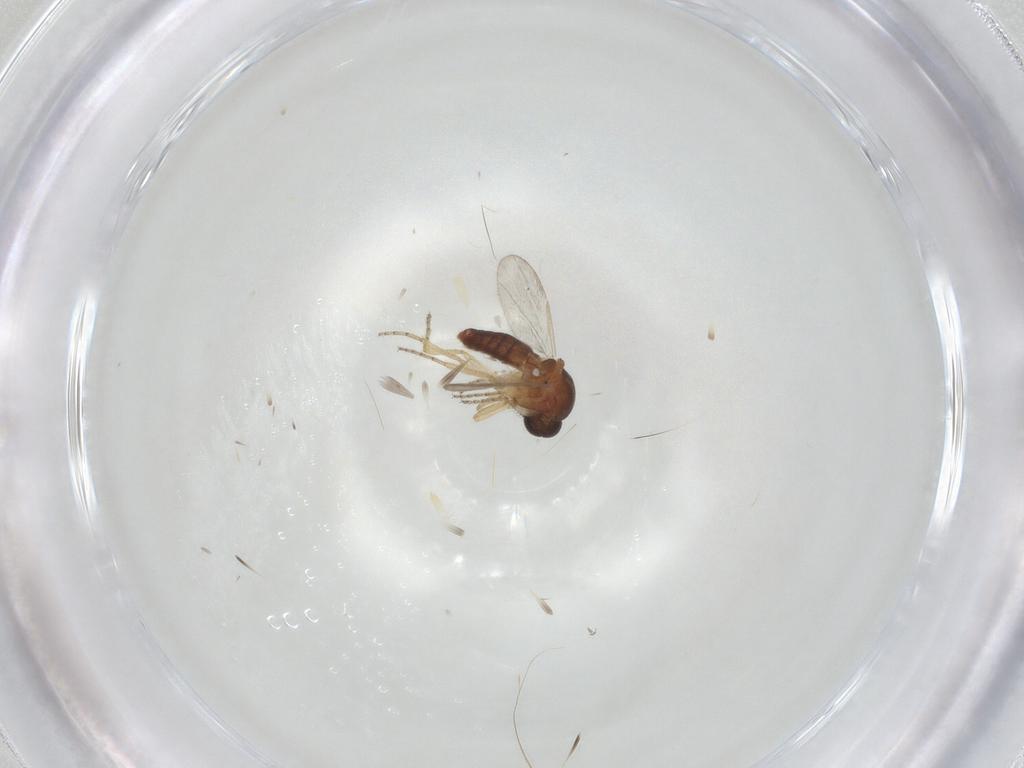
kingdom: Animalia
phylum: Arthropoda
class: Insecta
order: Diptera
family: Ceratopogonidae
